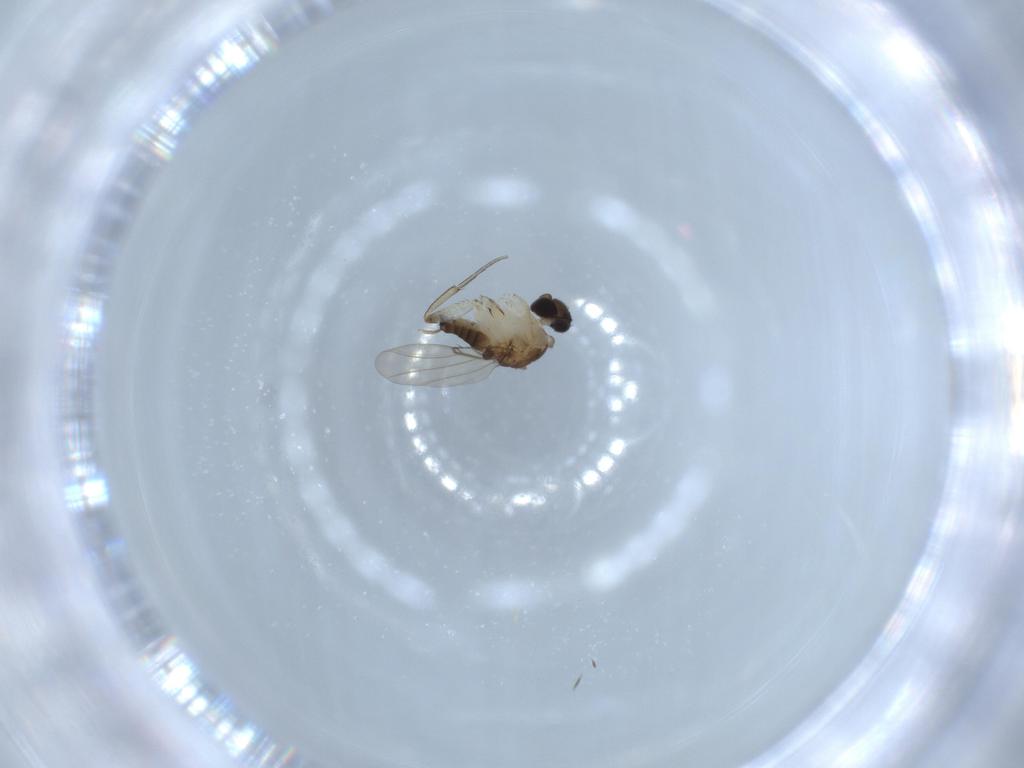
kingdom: Animalia
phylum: Arthropoda
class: Insecta
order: Diptera
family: Phoridae
